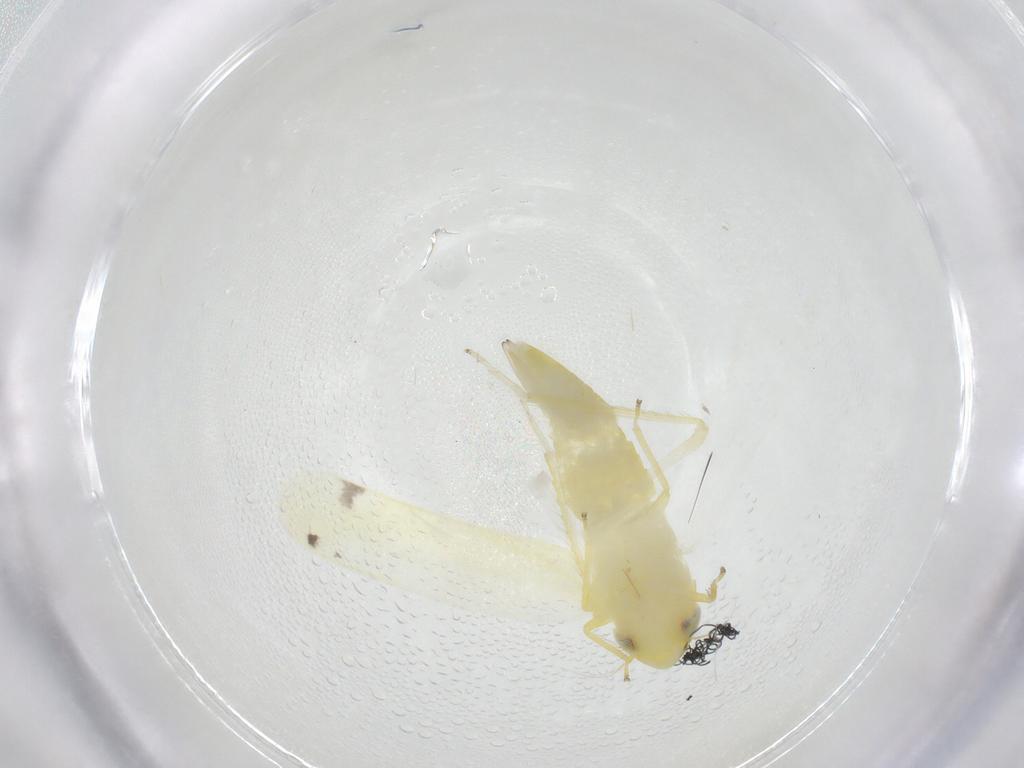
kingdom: Animalia
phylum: Arthropoda
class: Insecta
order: Hemiptera
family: Cicadellidae
